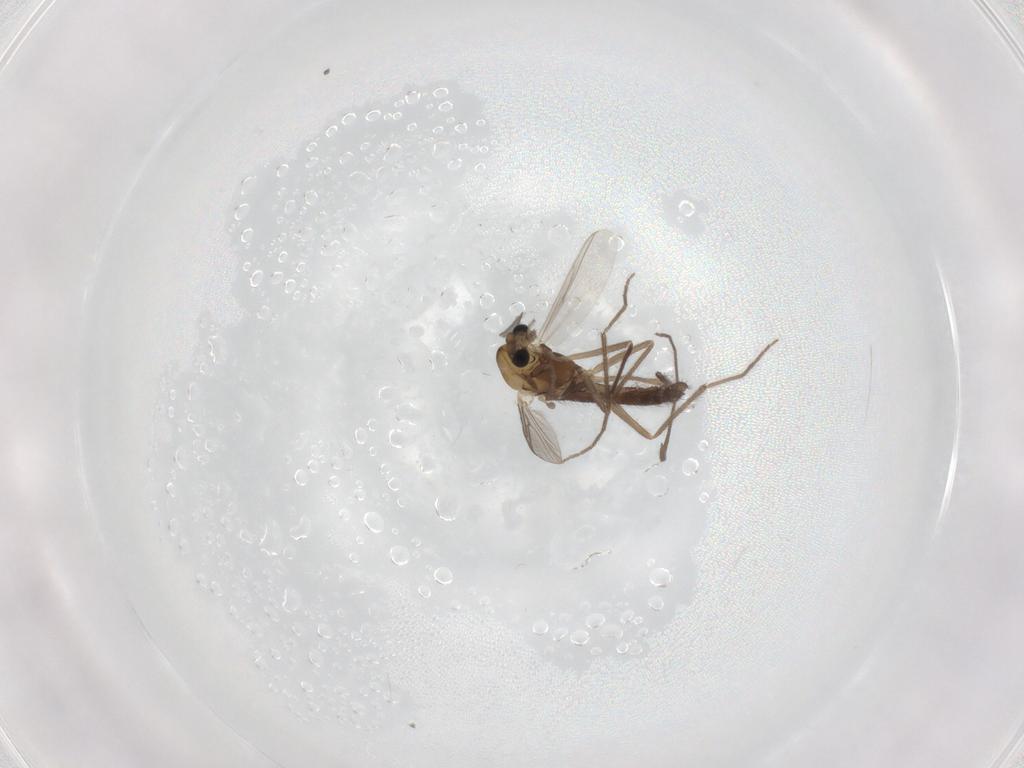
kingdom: Animalia
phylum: Arthropoda
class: Insecta
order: Diptera
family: Chironomidae
